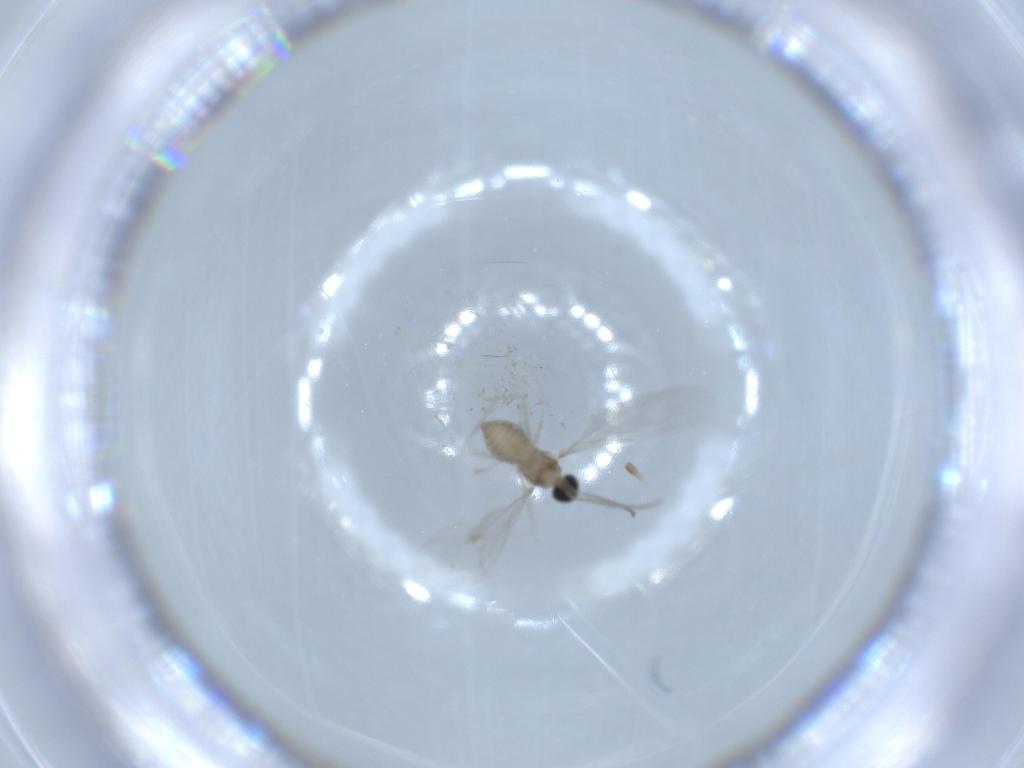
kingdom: Animalia
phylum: Arthropoda
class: Insecta
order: Diptera
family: Cecidomyiidae
